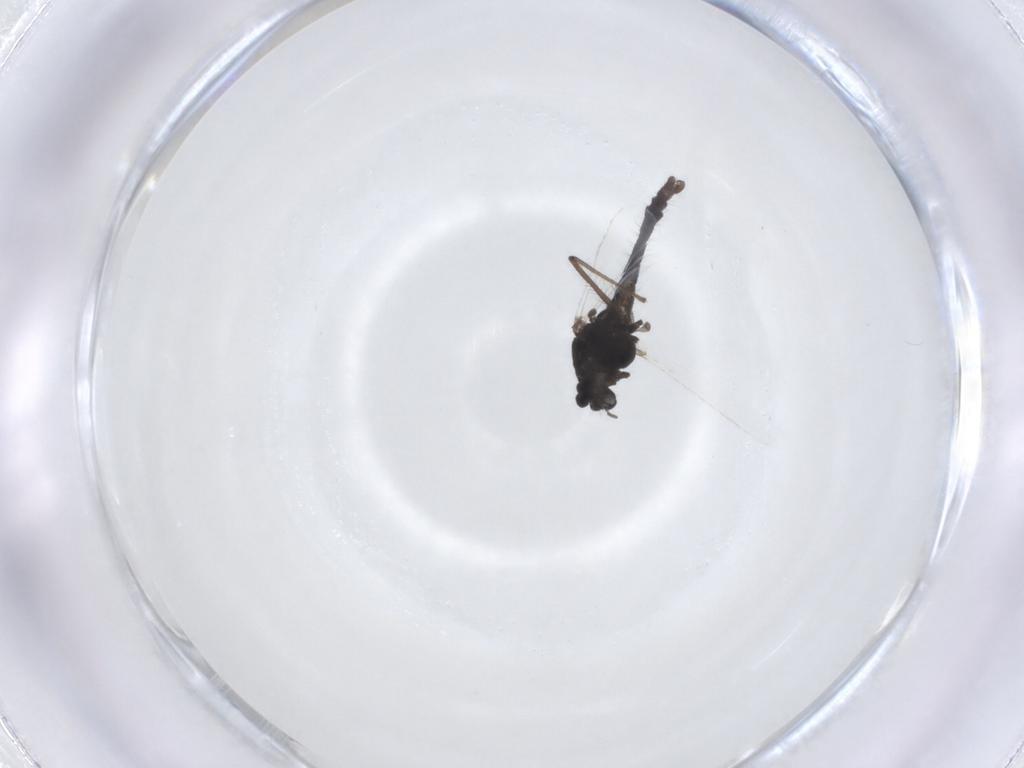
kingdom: Animalia
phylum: Arthropoda
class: Insecta
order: Diptera
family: Chironomidae
